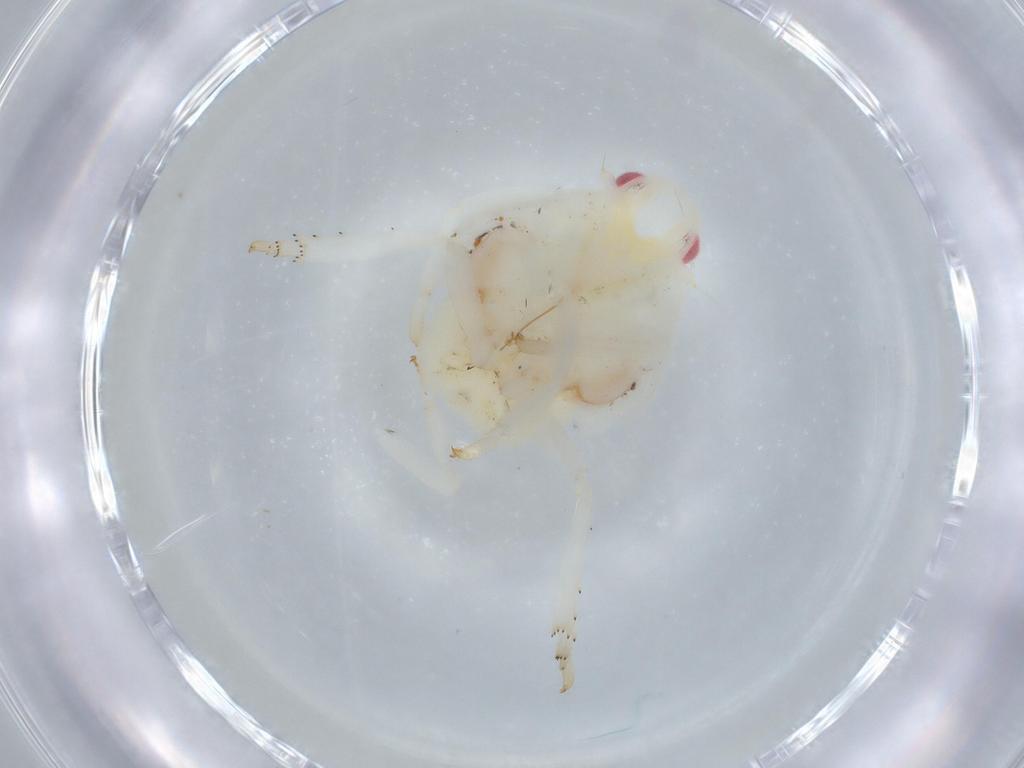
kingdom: Animalia
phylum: Arthropoda
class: Insecta
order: Hemiptera
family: Flatidae
